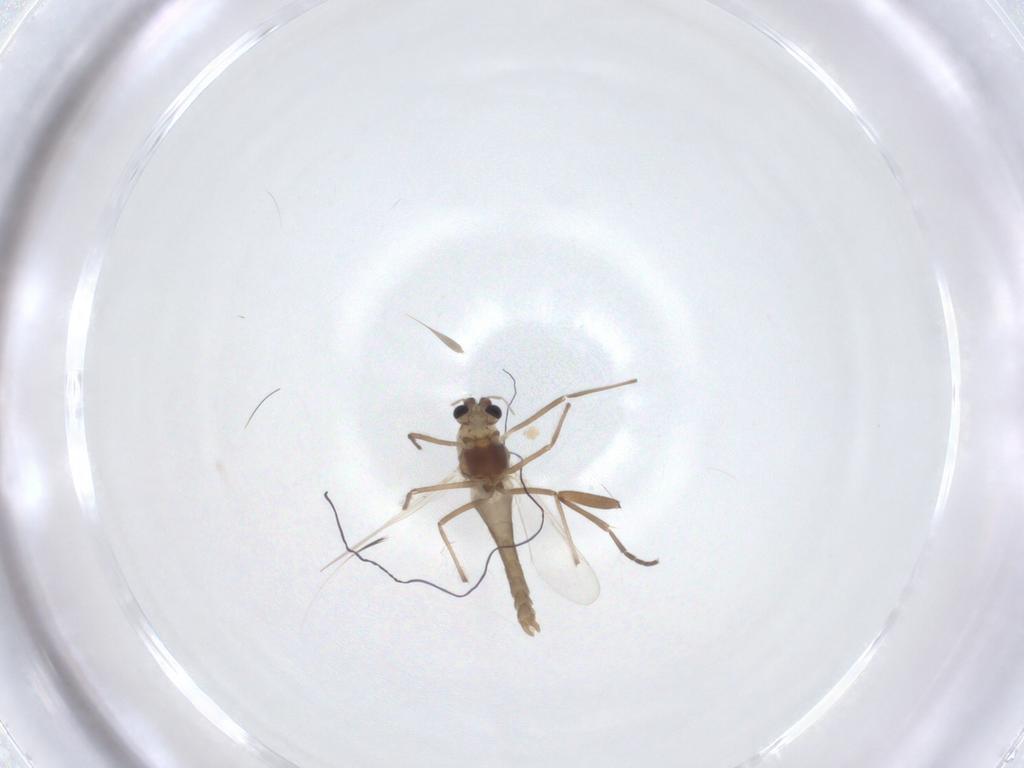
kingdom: Animalia
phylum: Arthropoda
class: Insecta
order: Diptera
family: Chironomidae
